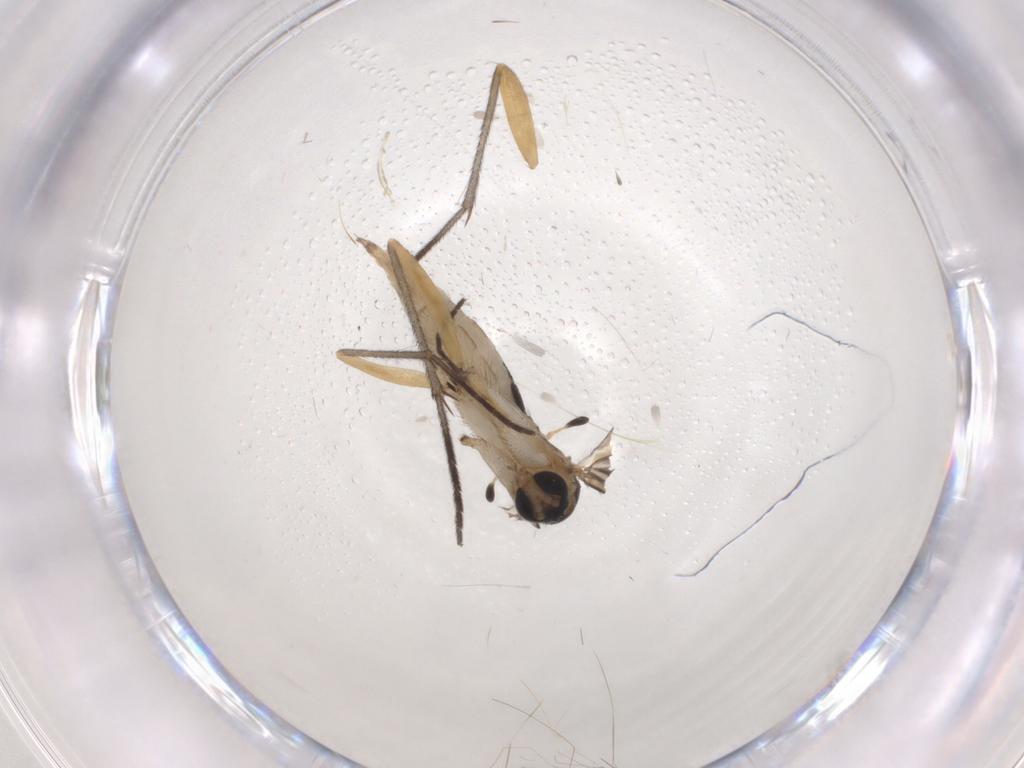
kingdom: Animalia
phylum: Arthropoda
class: Insecta
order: Diptera
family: Sciaridae
